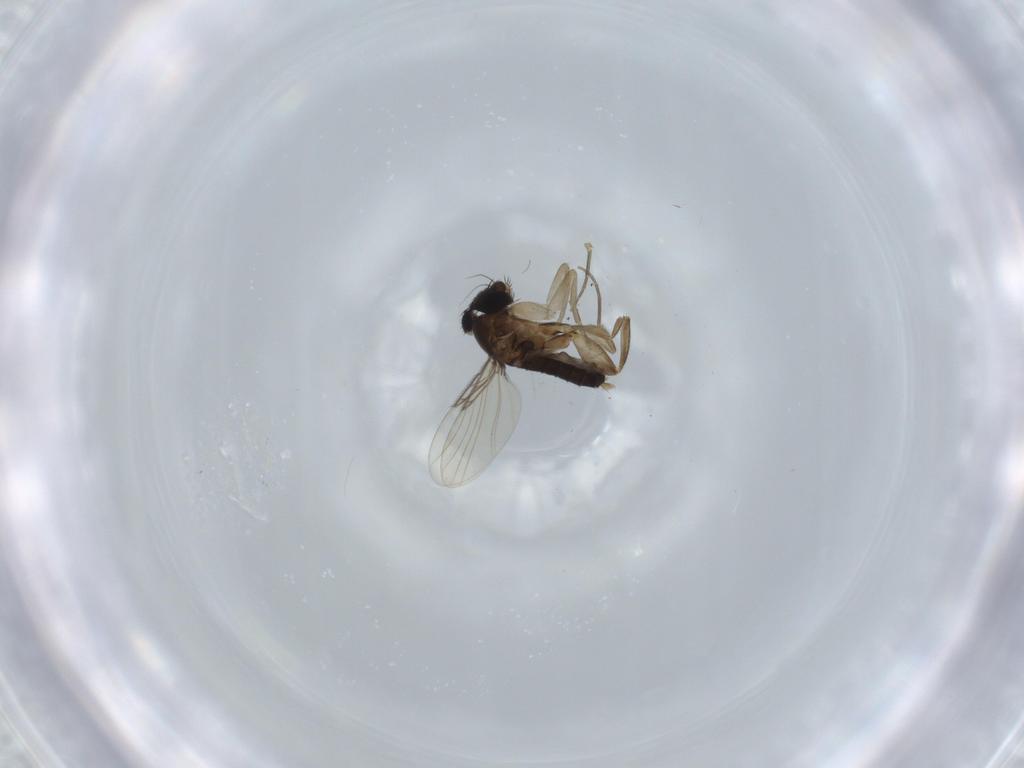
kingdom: Animalia
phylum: Arthropoda
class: Insecta
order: Diptera
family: Phoridae
